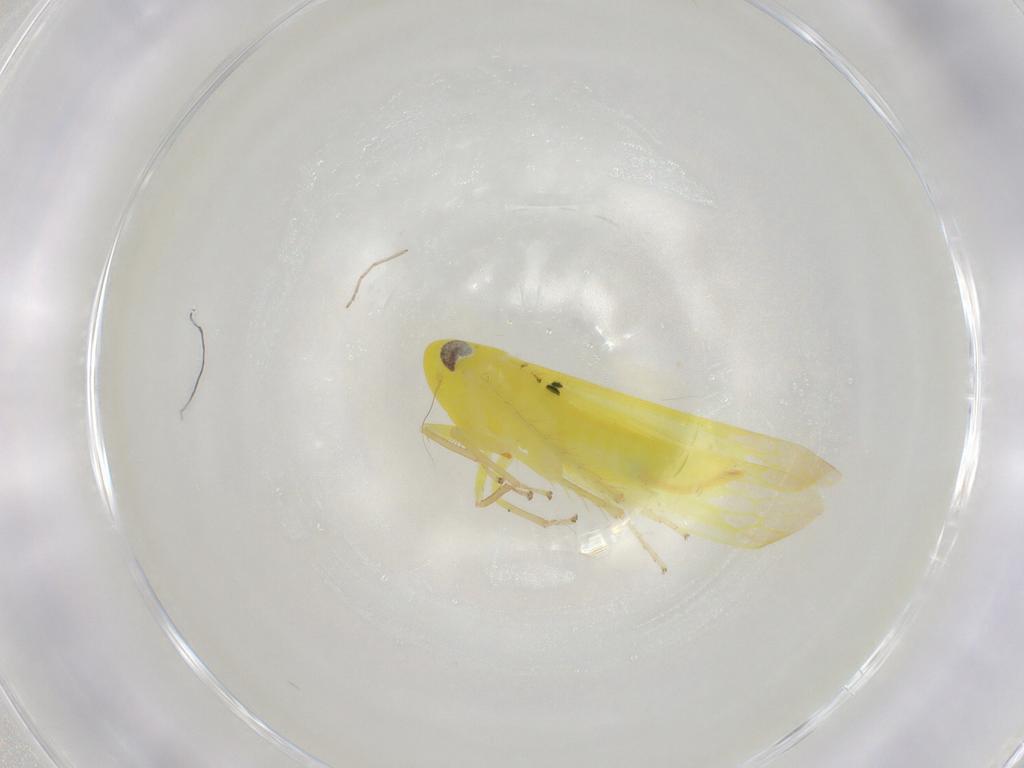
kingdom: Animalia
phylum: Arthropoda
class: Insecta
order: Hemiptera
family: Cicadellidae
